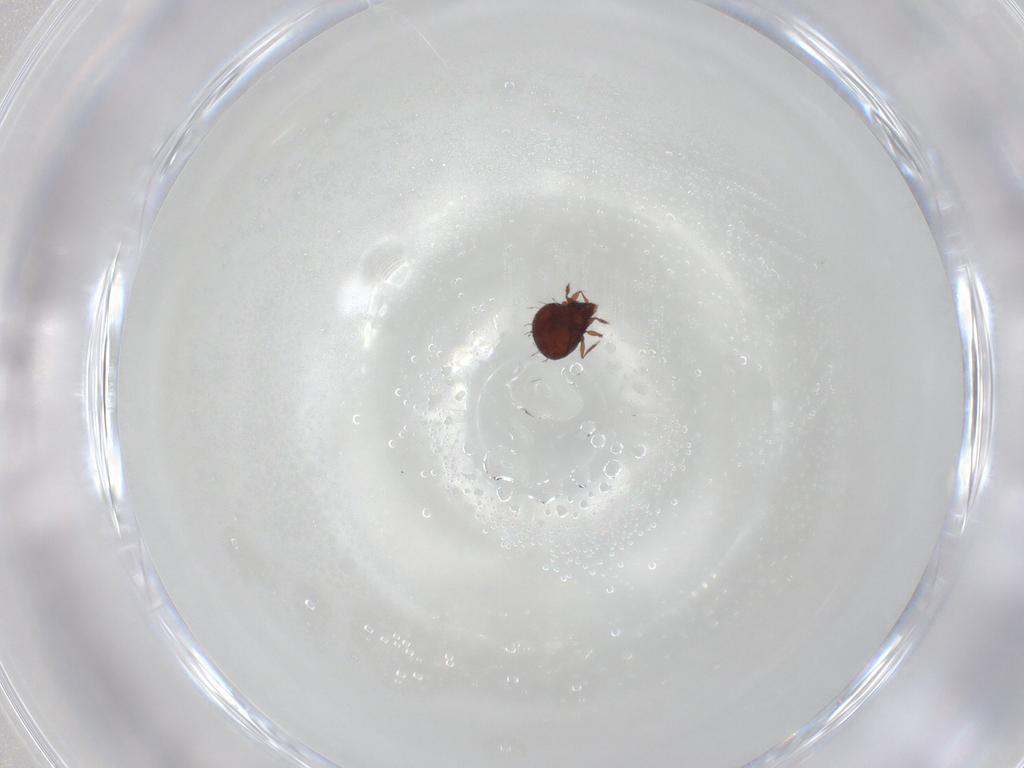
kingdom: Animalia
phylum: Arthropoda
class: Arachnida
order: Sarcoptiformes
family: Caloppiidae
